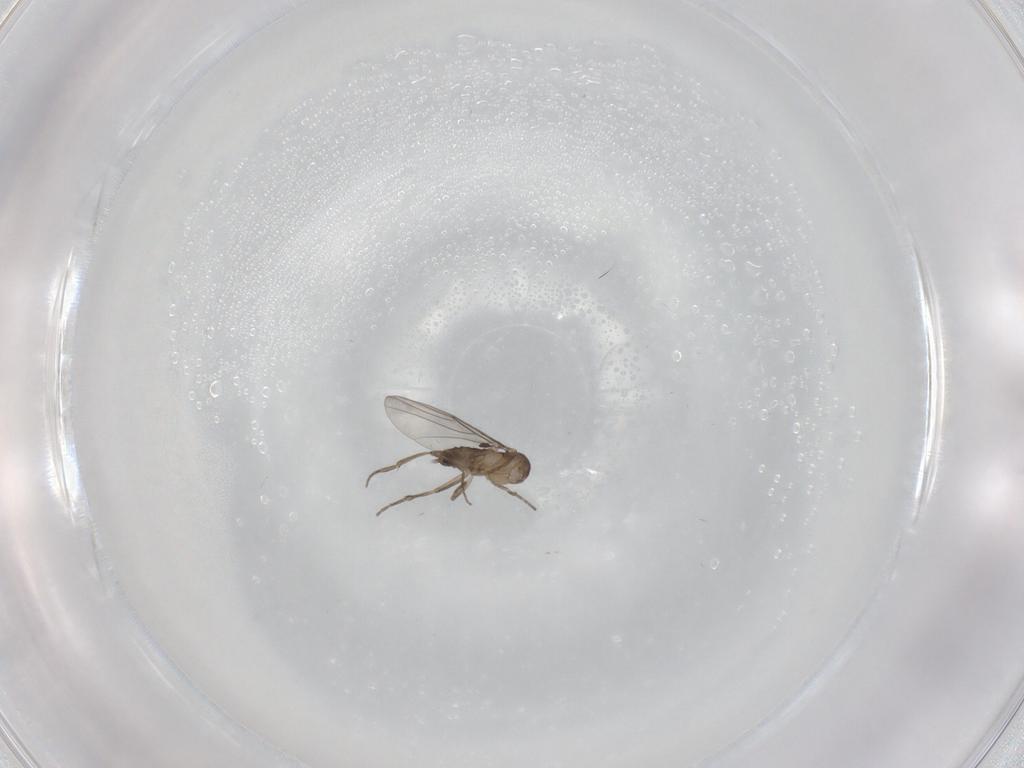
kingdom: Animalia
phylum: Arthropoda
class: Insecta
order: Diptera
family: Phoridae
